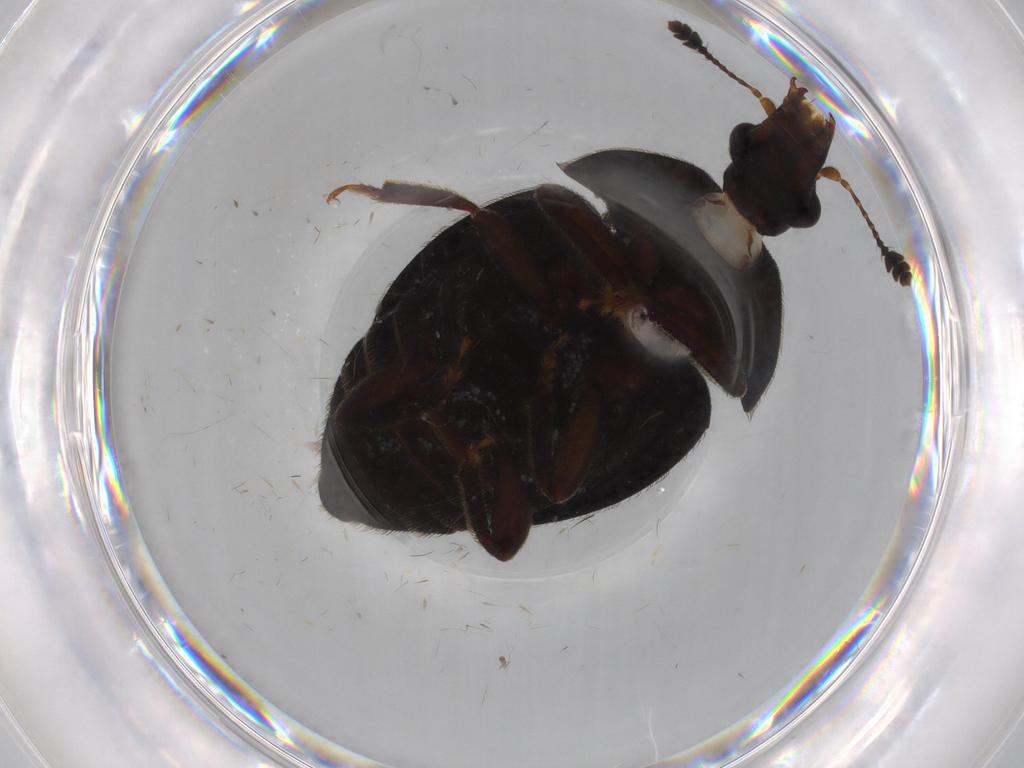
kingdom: Animalia
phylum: Arthropoda
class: Insecta
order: Coleoptera
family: Scarabaeidae
